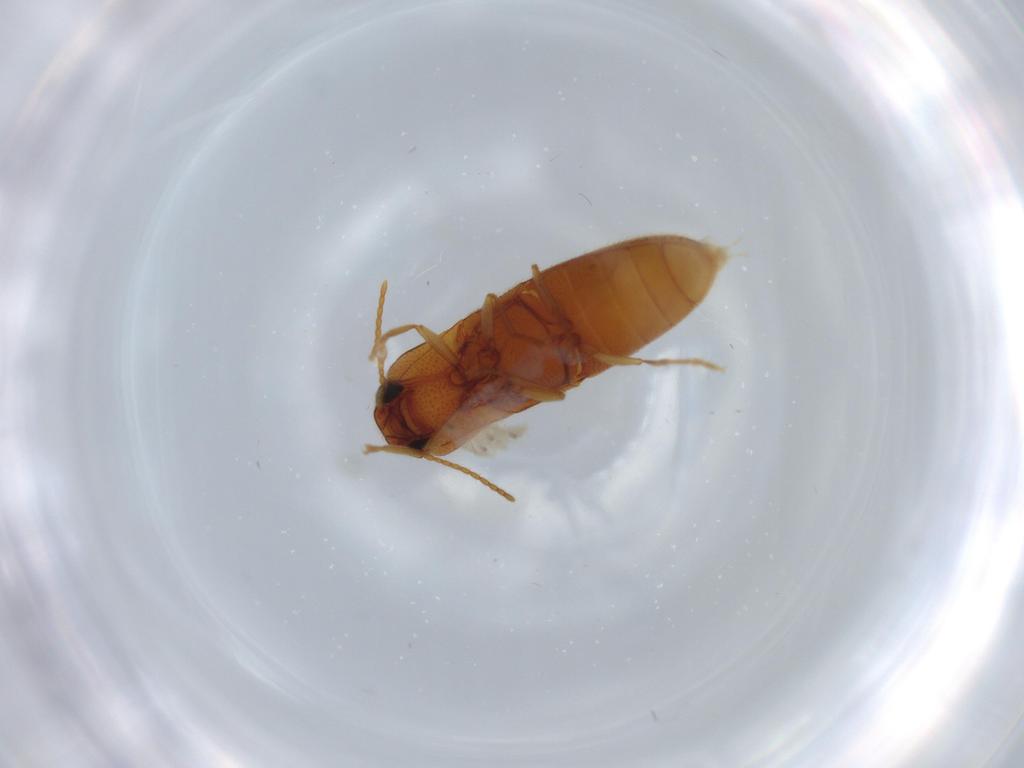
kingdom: Animalia
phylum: Arthropoda
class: Insecta
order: Coleoptera
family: Elateridae
